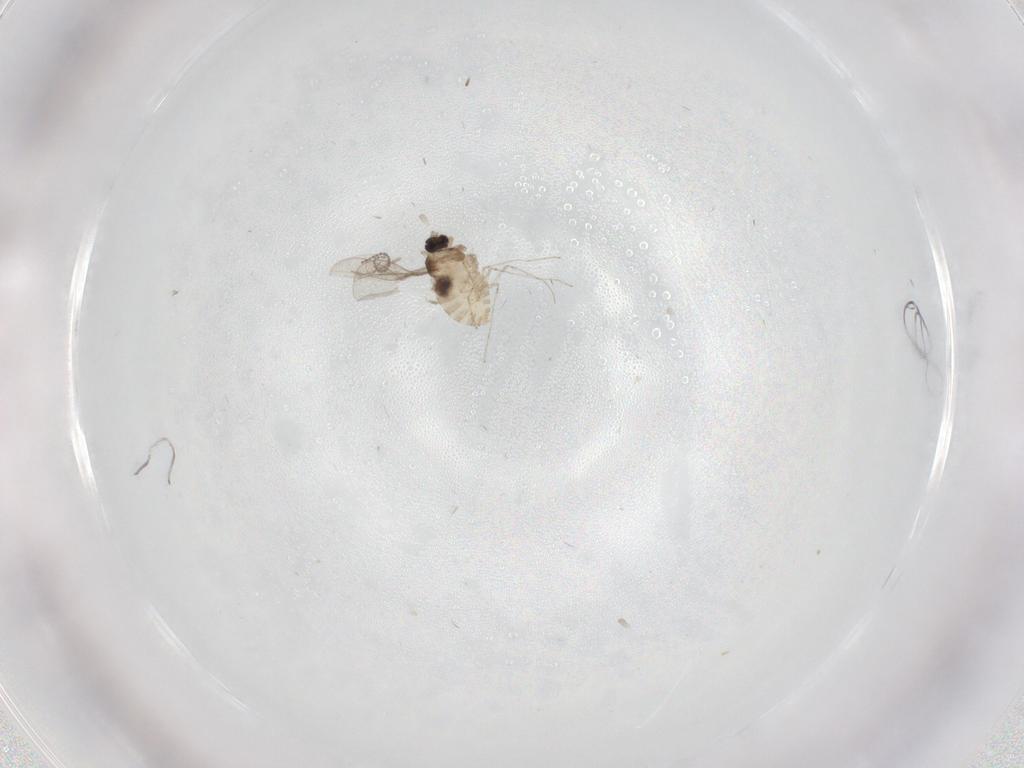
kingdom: Animalia
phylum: Arthropoda
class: Insecta
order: Diptera
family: Cecidomyiidae
